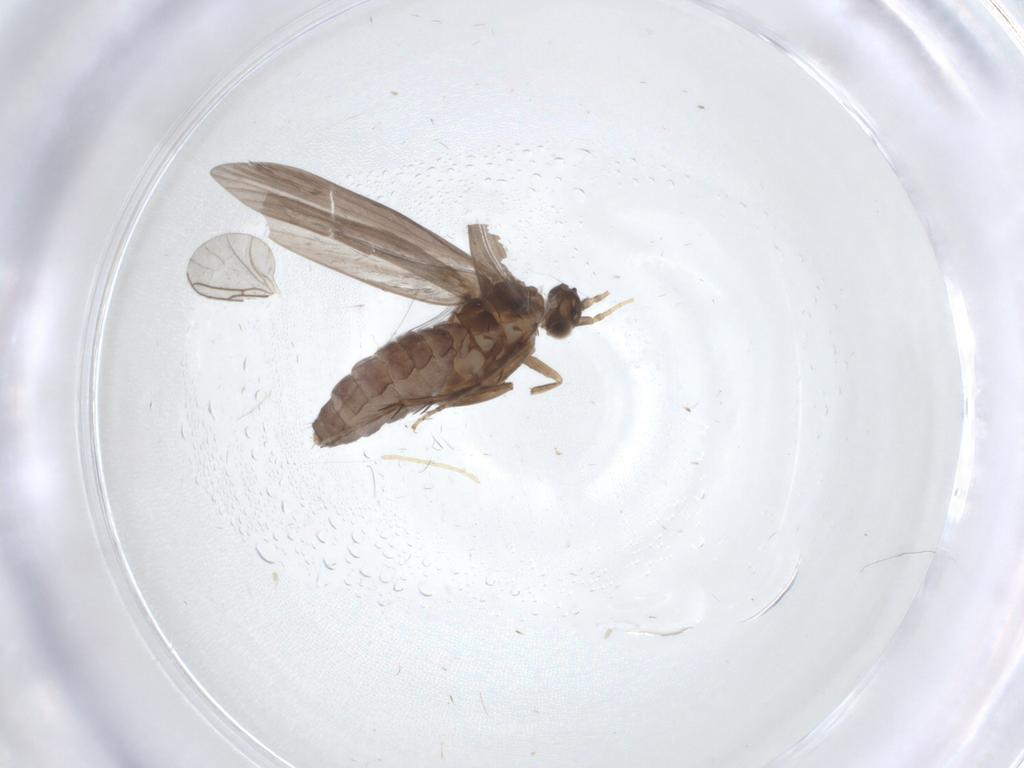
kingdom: Animalia
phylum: Arthropoda
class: Insecta
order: Trichoptera
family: Glossosomatidae
